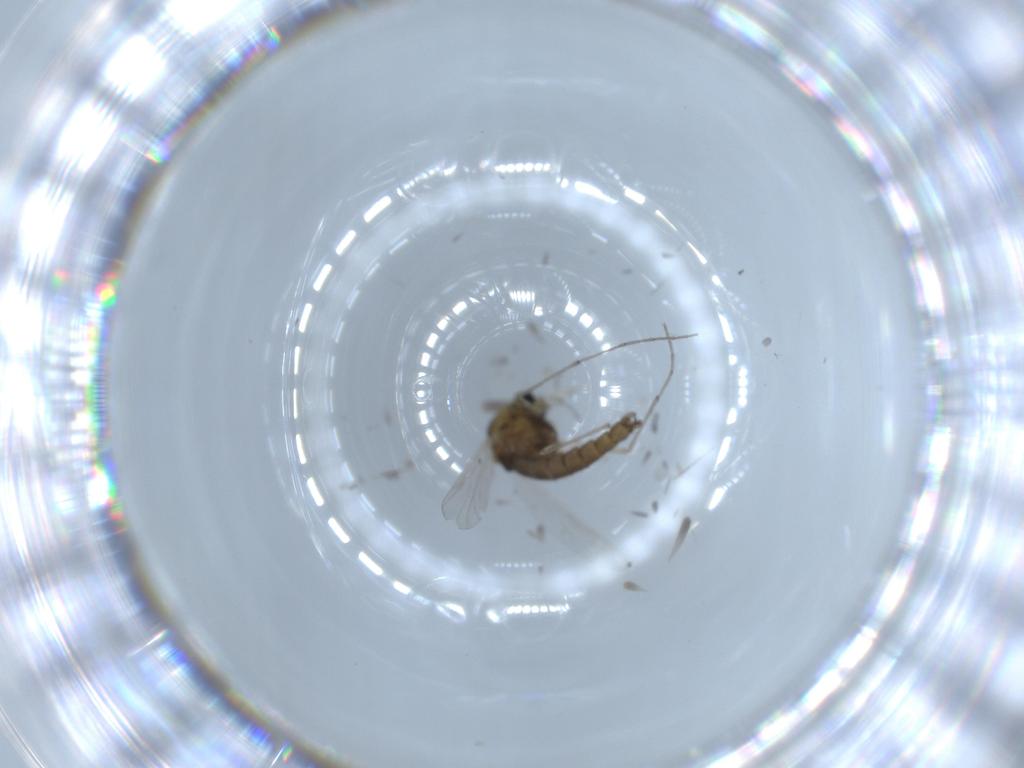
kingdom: Animalia
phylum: Arthropoda
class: Insecta
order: Diptera
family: Chironomidae
